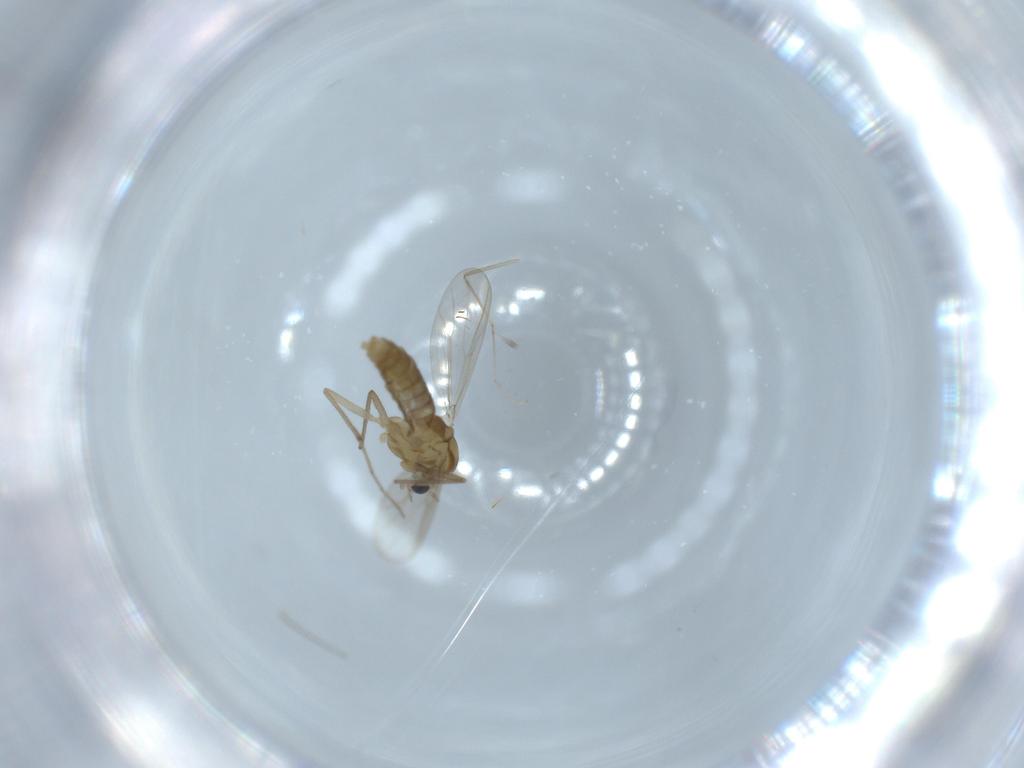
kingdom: Animalia
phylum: Arthropoda
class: Insecta
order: Diptera
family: Chironomidae
